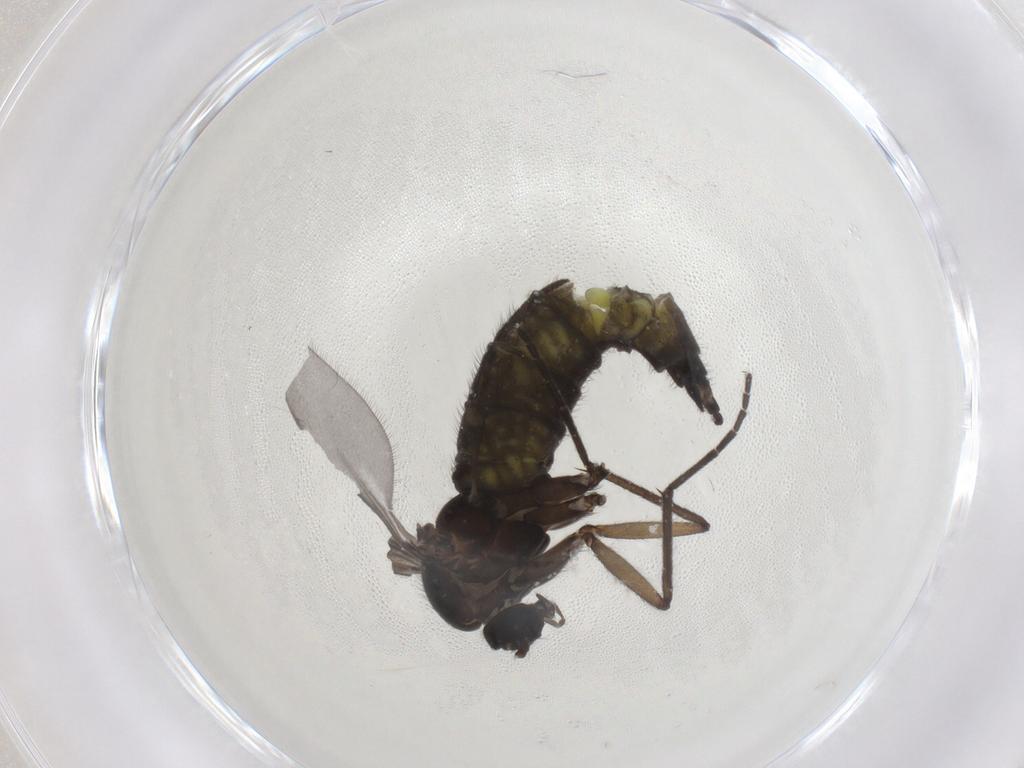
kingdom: Animalia
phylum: Arthropoda
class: Insecta
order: Diptera
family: Sciaridae
